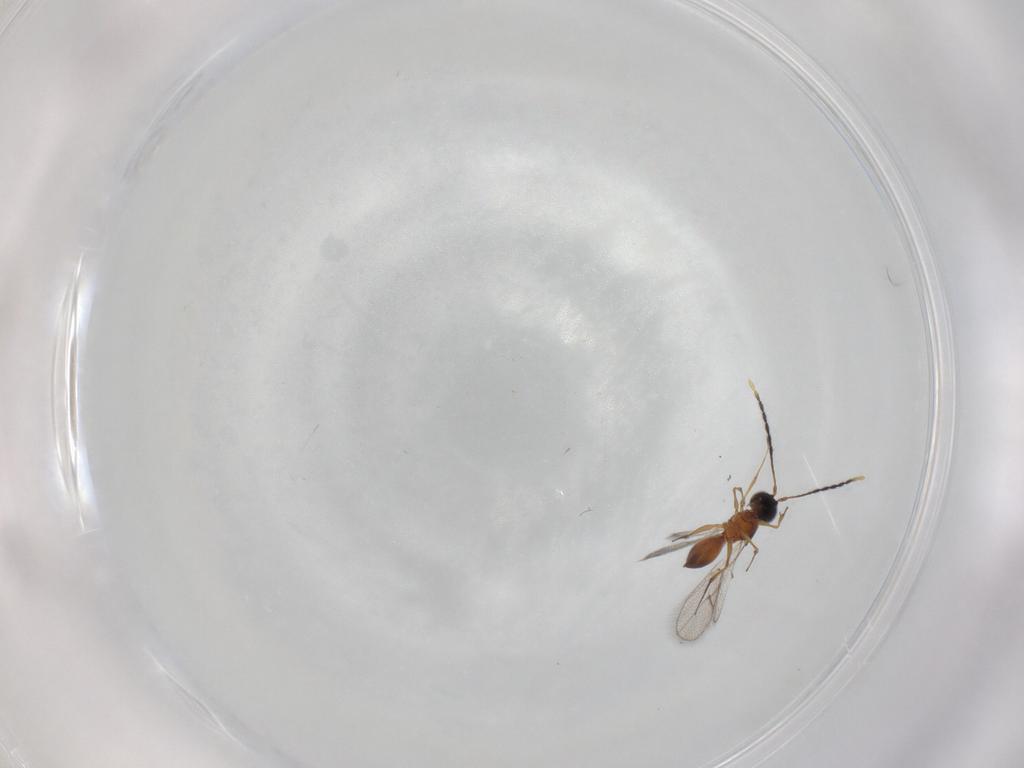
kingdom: Animalia
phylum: Arthropoda
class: Insecta
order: Hymenoptera
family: Figitidae
